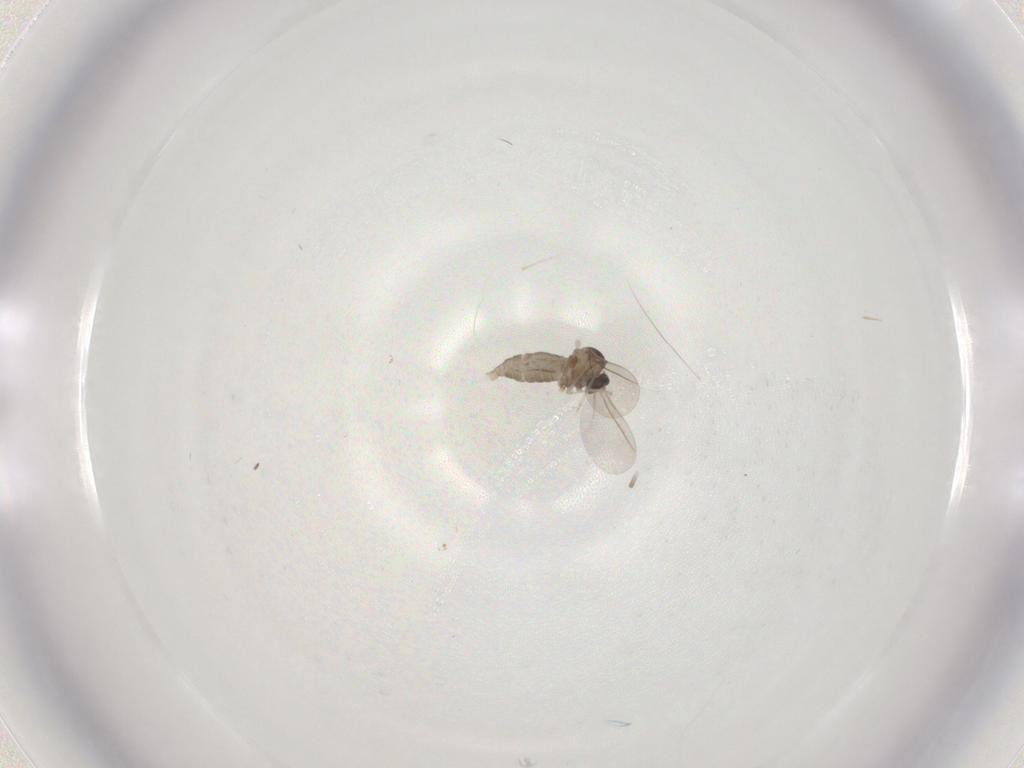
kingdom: Animalia
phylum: Arthropoda
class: Insecta
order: Diptera
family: Cecidomyiidae
